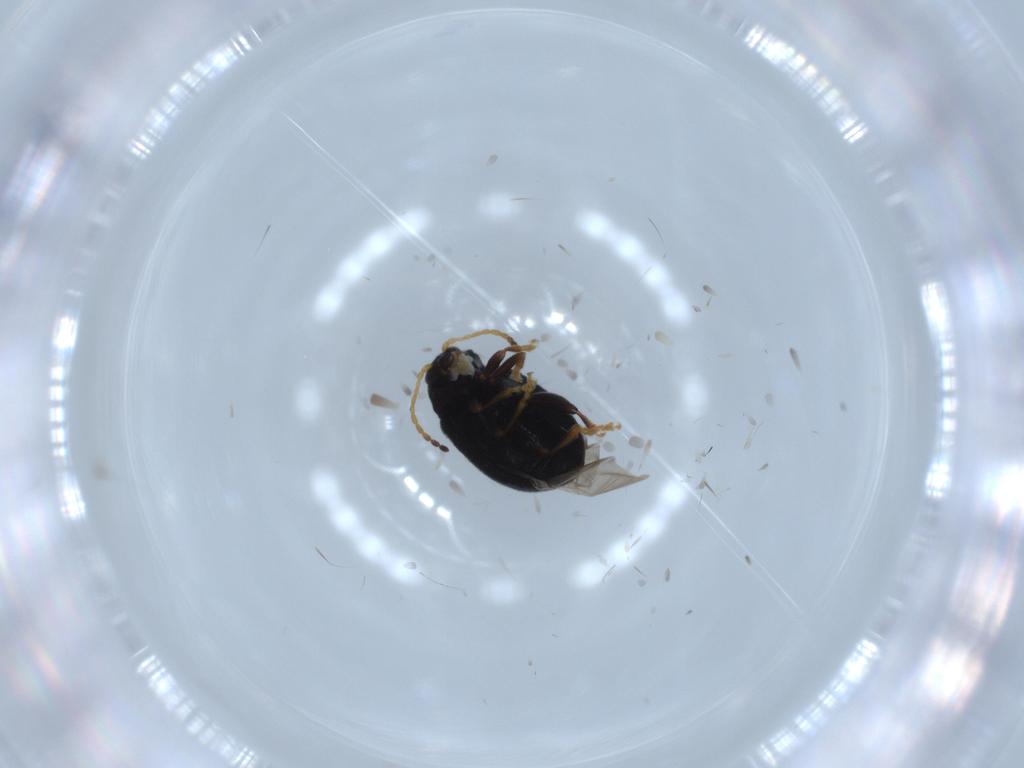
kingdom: Animalia
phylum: Arthropoda
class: Insecta
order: Coleoptera
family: Chrysomelidae
